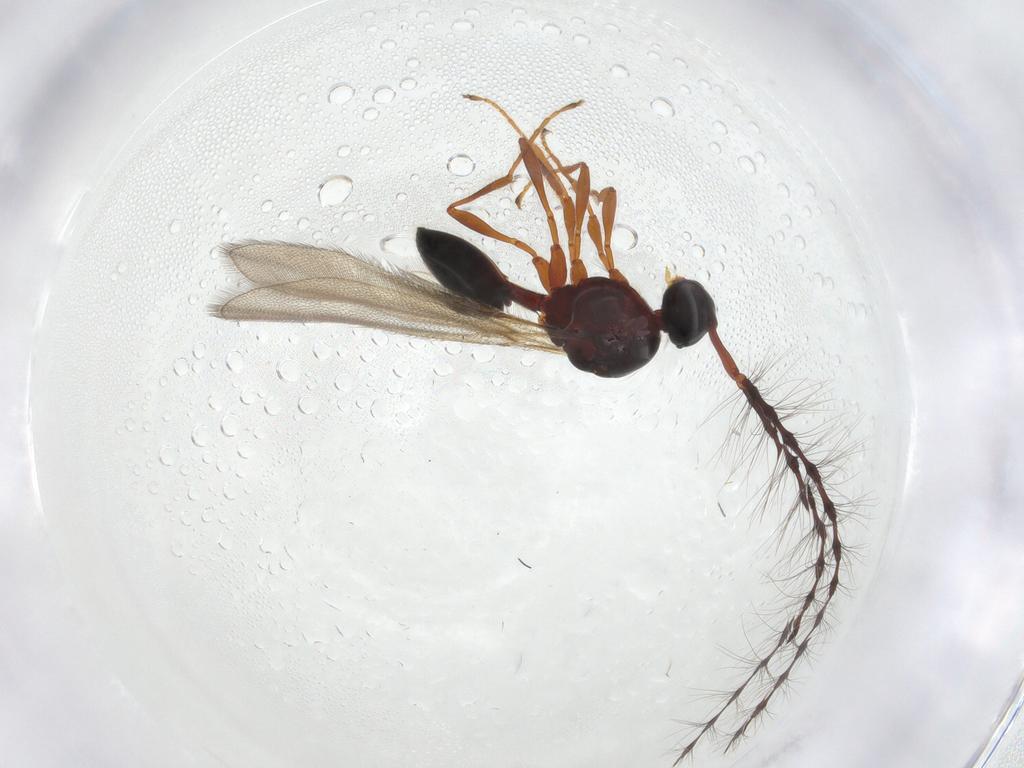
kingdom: Animalia
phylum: Arthropoda
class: Insecta
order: Hymenoptera
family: Diapriidae
